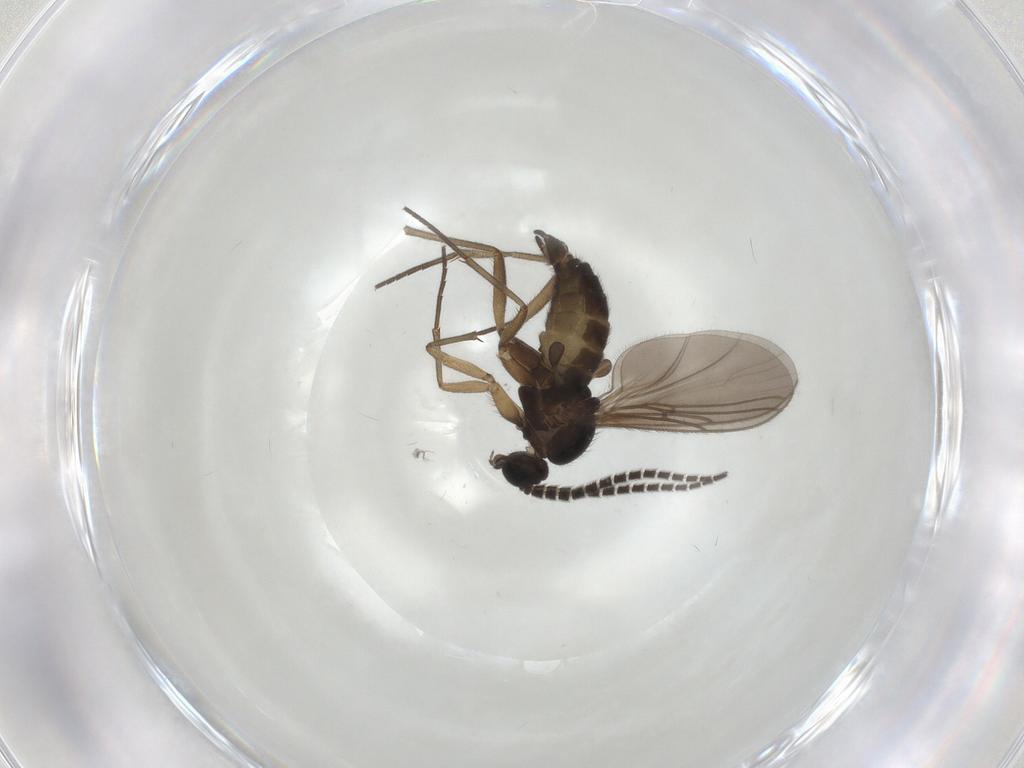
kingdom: Animalia
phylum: Arthropoda
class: Insecta
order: Diptera
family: Sciaridae
